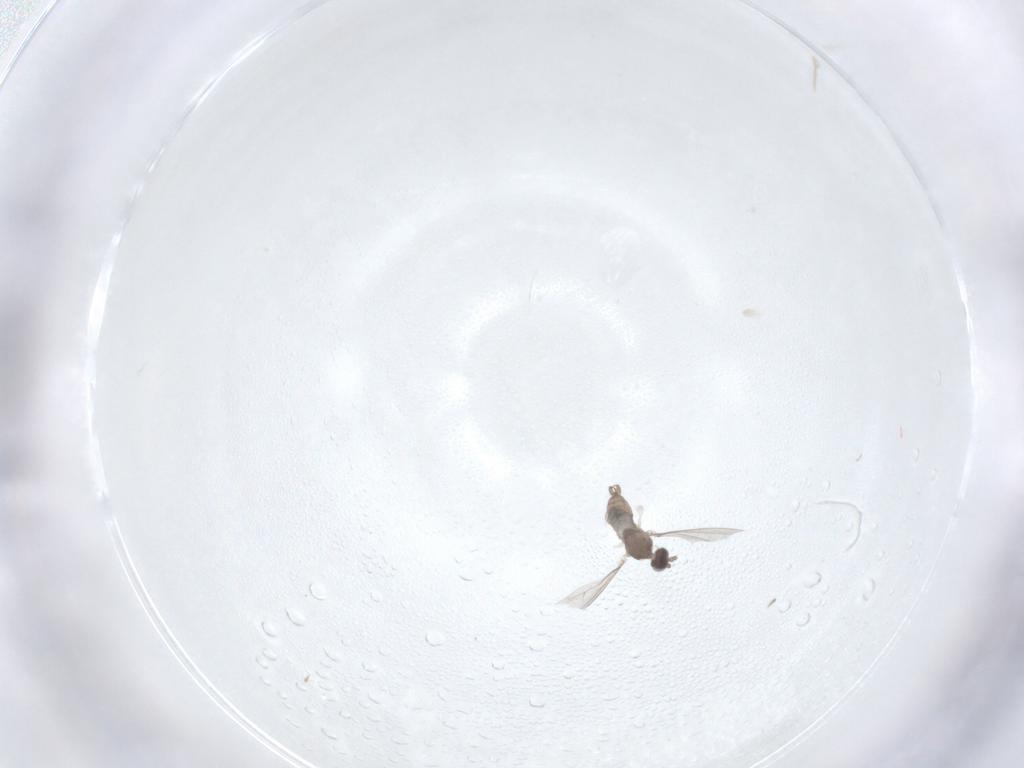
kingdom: Animalia
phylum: Arthropoda
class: Insecta
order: Diptera
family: Cecidomyiidae
